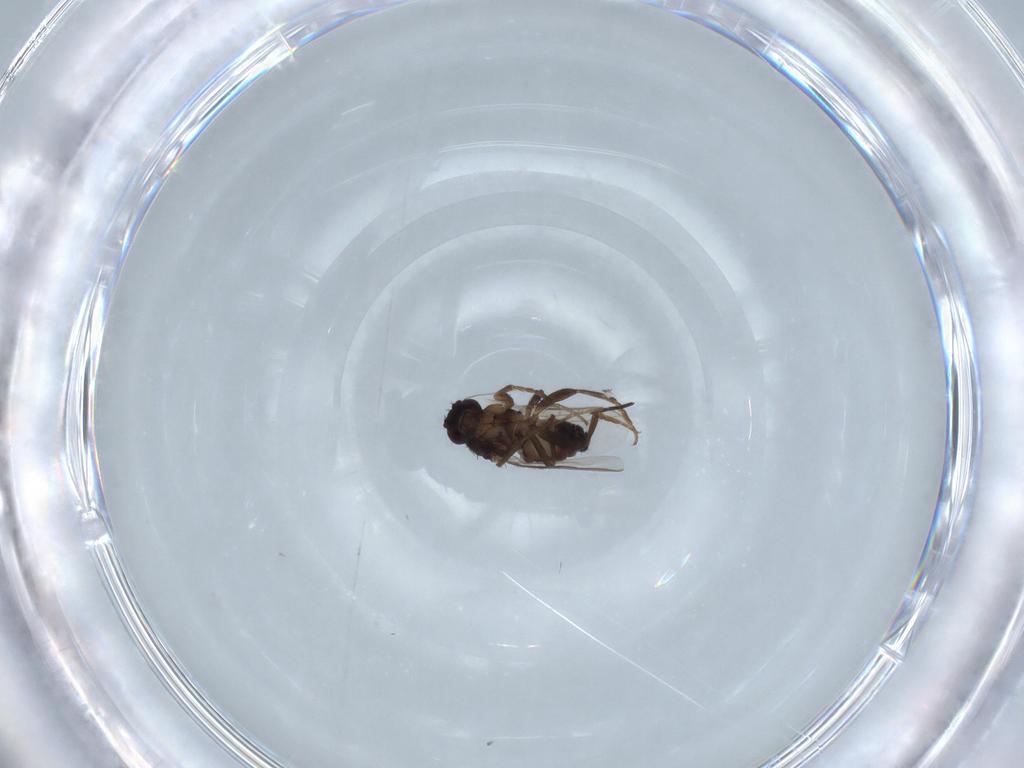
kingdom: Animalia
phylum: Arthropoda
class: Insecta
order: Diptera
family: Sphaeroceridae
